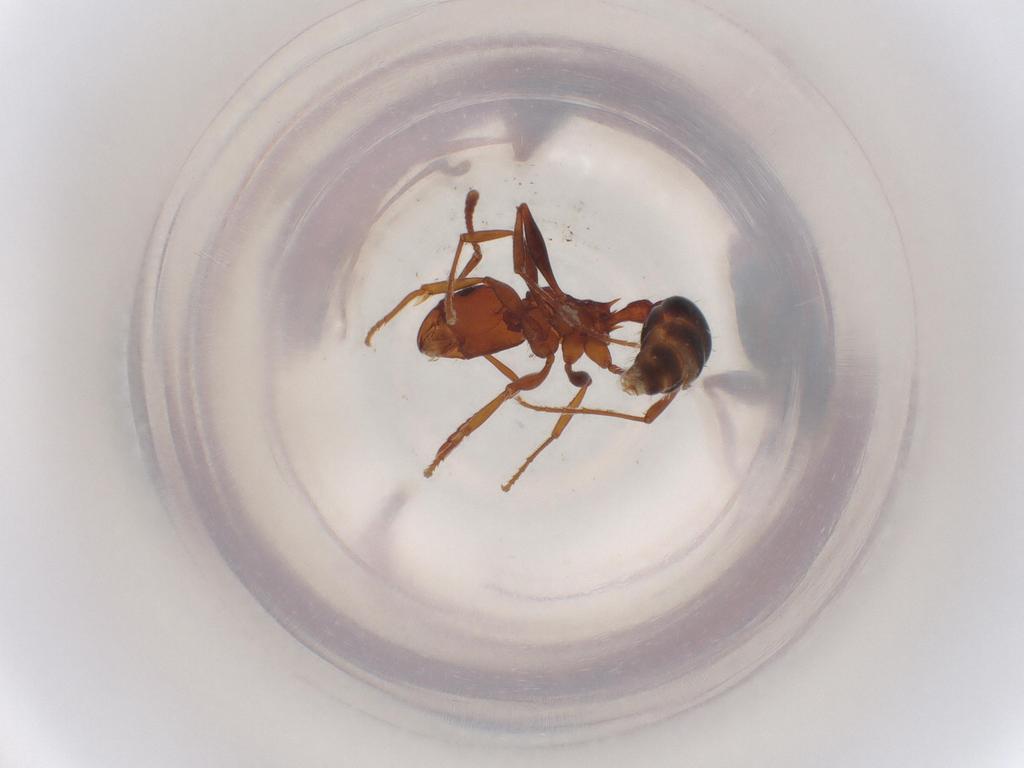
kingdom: Animalia
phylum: Arthropoda
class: Insecta
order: Hymenoptera
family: Formicidae
